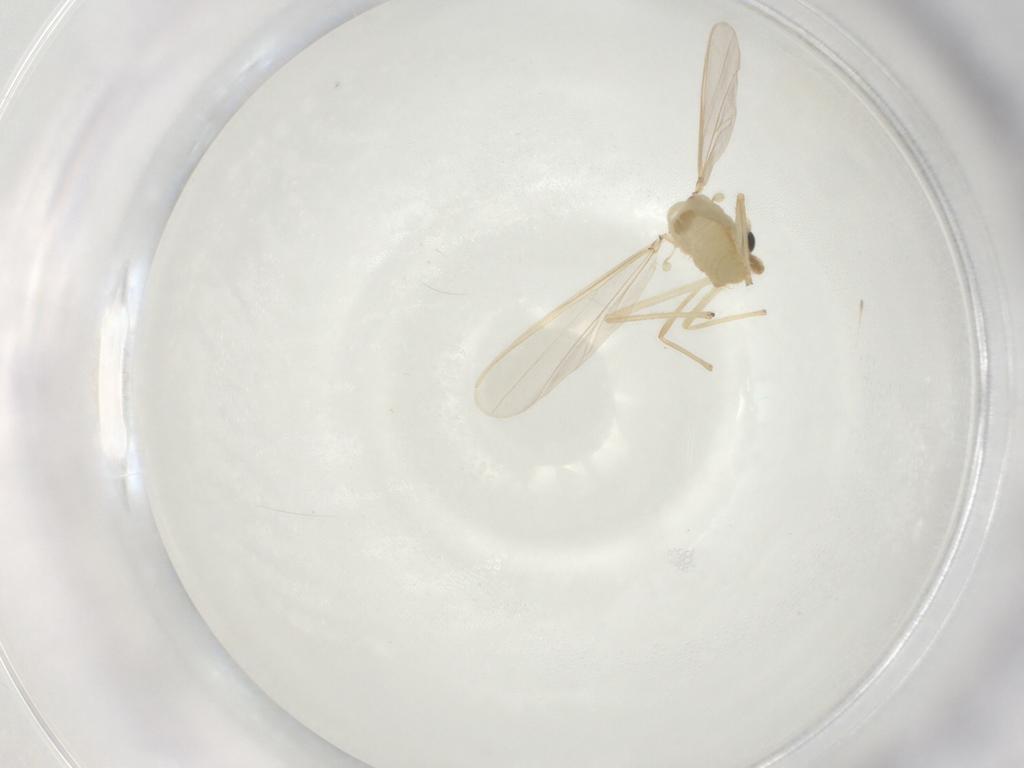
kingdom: Animalia
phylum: Arthropoda
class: Insecta
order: Diptera
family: Chironomidae
